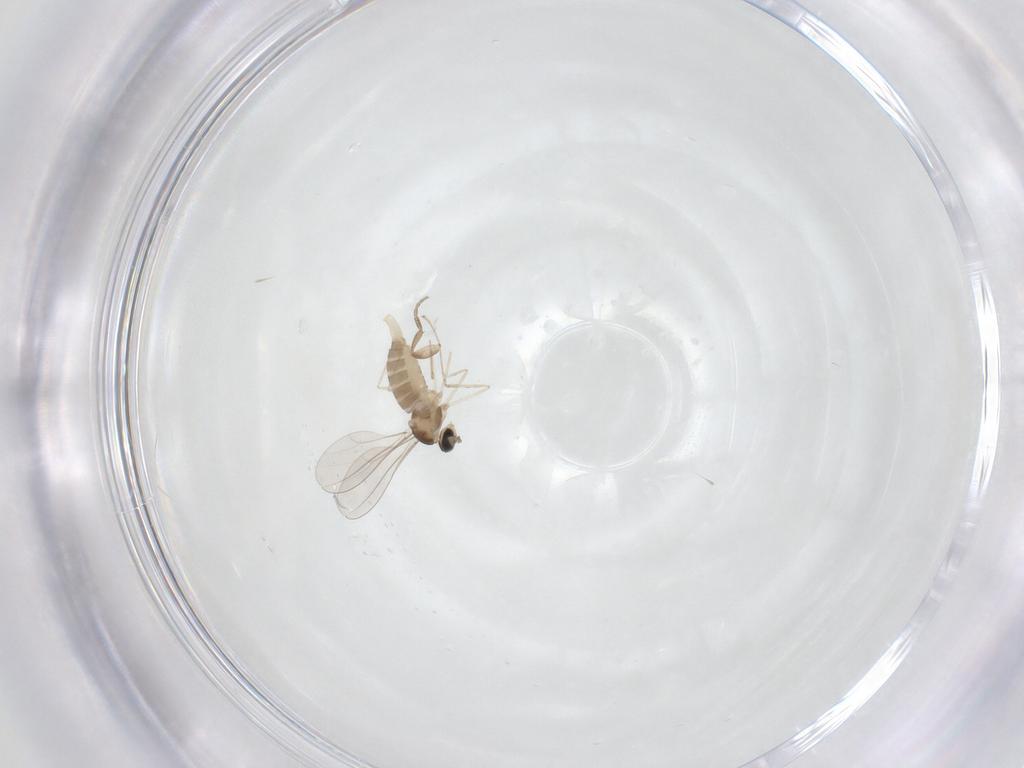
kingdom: Animalia
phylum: Arthropoda
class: Insecta
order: Diptera
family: Cecidomyiidae
